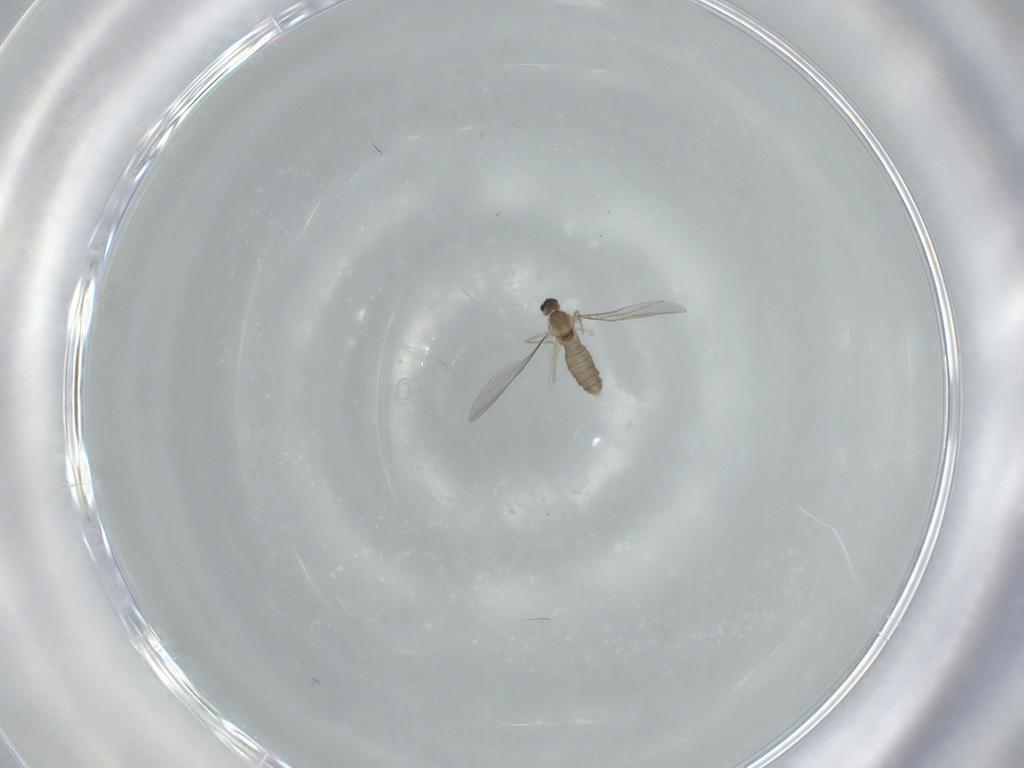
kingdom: Animalia
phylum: Arthropoda
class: Insecta
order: Diptera
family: Cecidomyiidae
